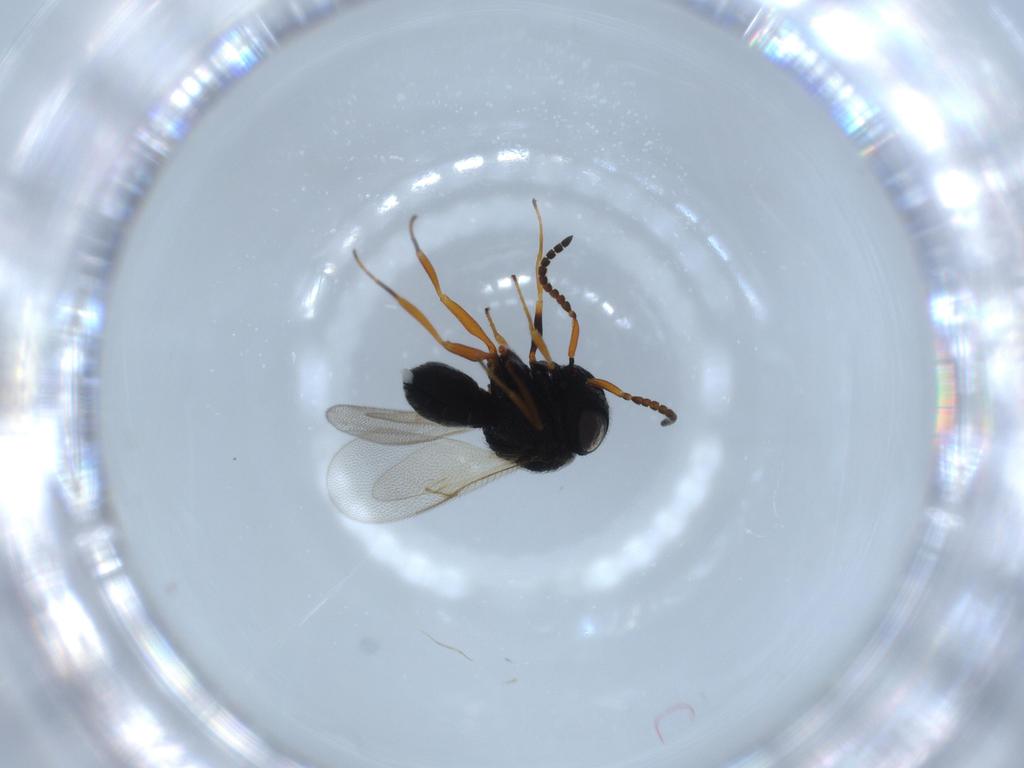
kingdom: Animalia
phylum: Arthropoda
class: Insecta
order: Hymenoptera
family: Scelionidae
